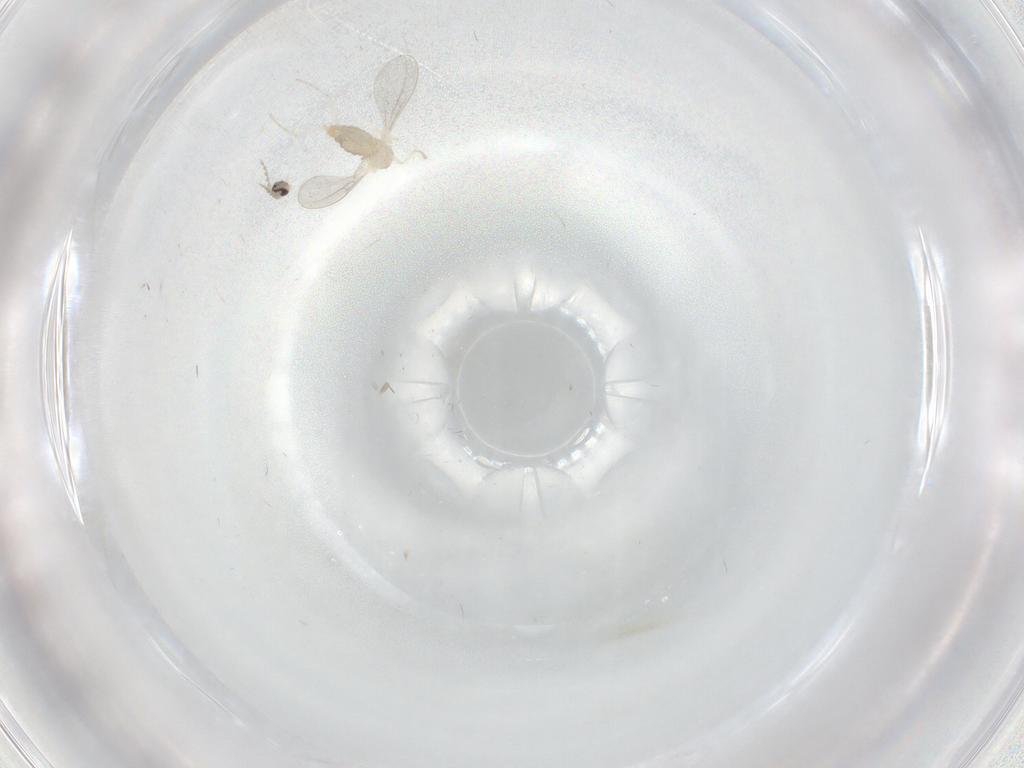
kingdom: Animalia
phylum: Arthropoda
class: Insecta
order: Diptera
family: Cecidomyiidae
